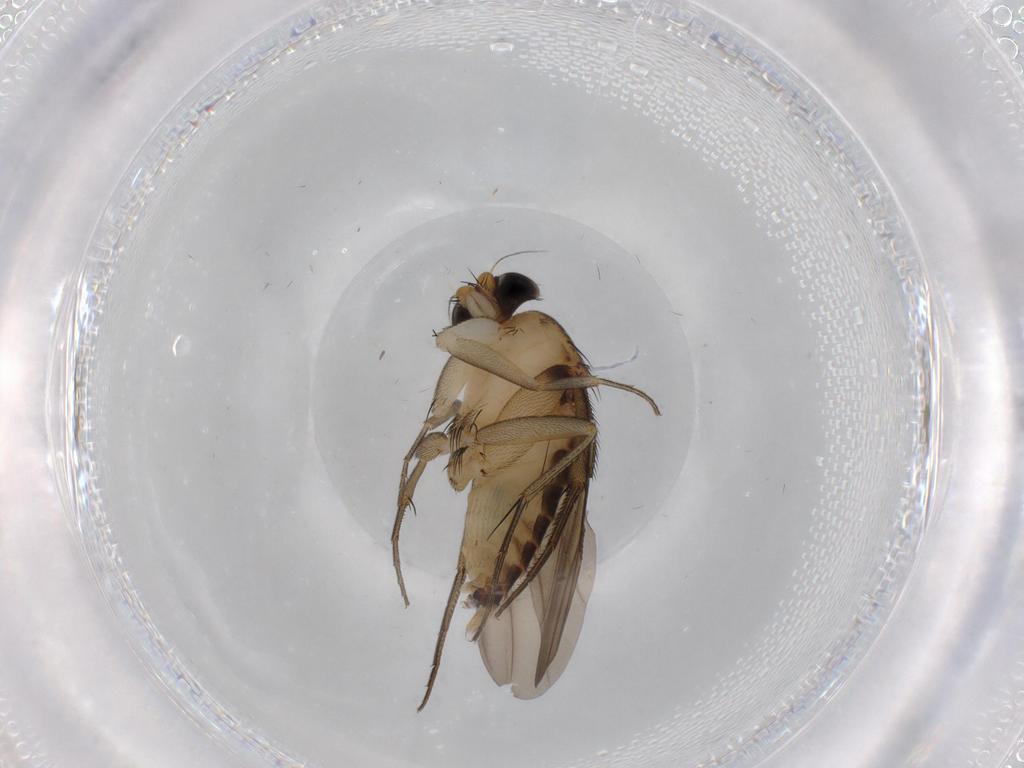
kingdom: Animalia
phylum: Arthropoda
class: Insecta
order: Diptera
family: Phoridae
